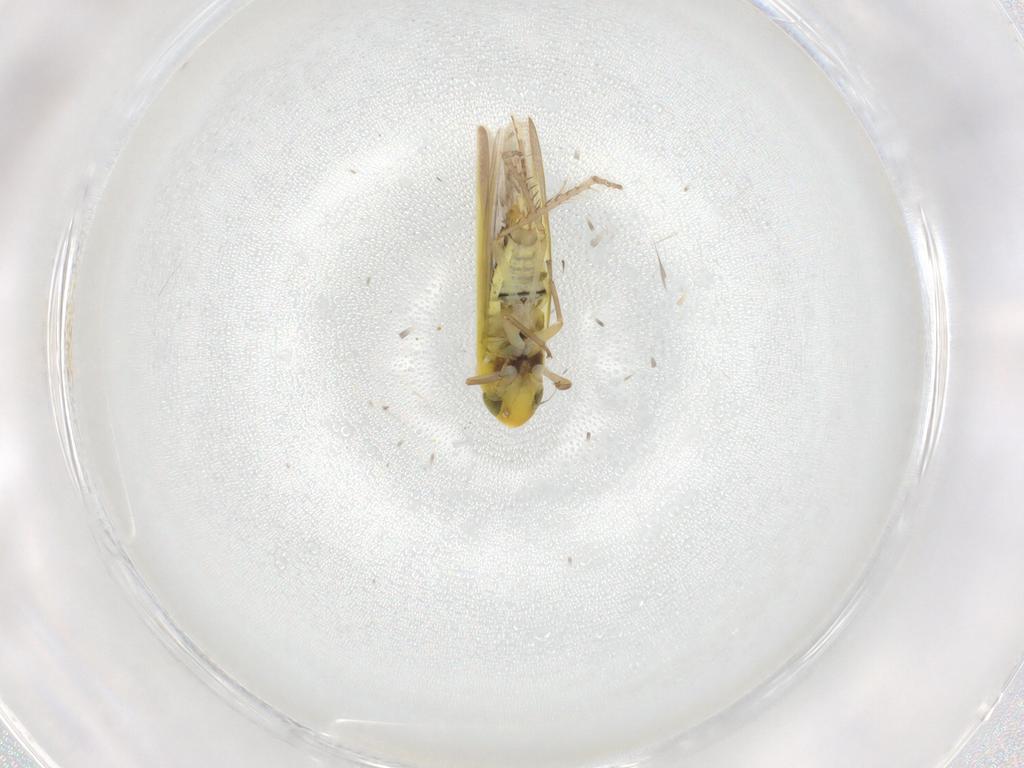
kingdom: Animalia
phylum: Arthropoda
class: Insecta
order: Hemiptera
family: Cicadellidae
